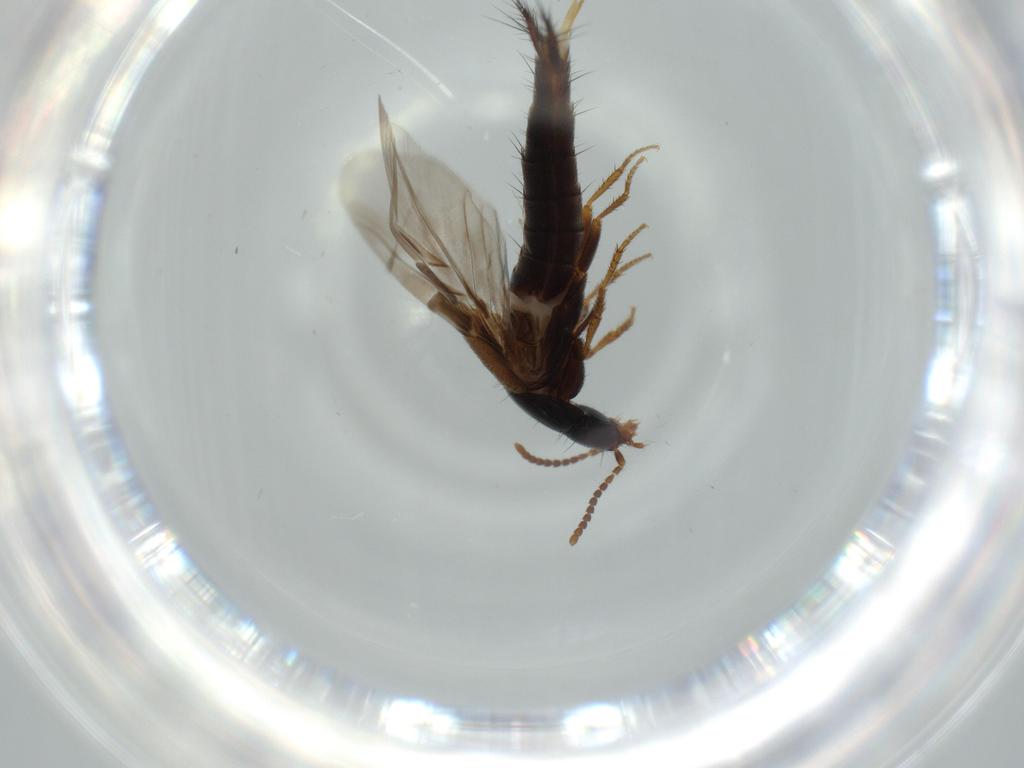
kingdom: Animalia
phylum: Arthropoda
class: Insecta
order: Coleoptera
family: Staphylinidae
